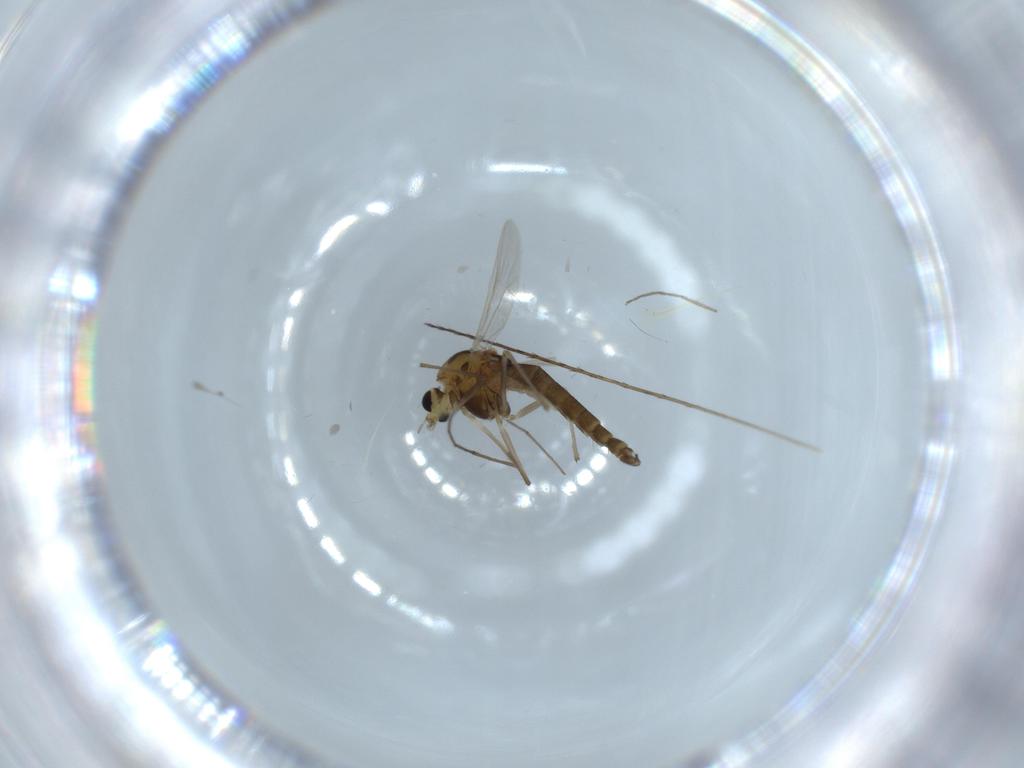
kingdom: Animalia
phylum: Arthropoda
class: Insecta
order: Diptera
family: Chironomidae
